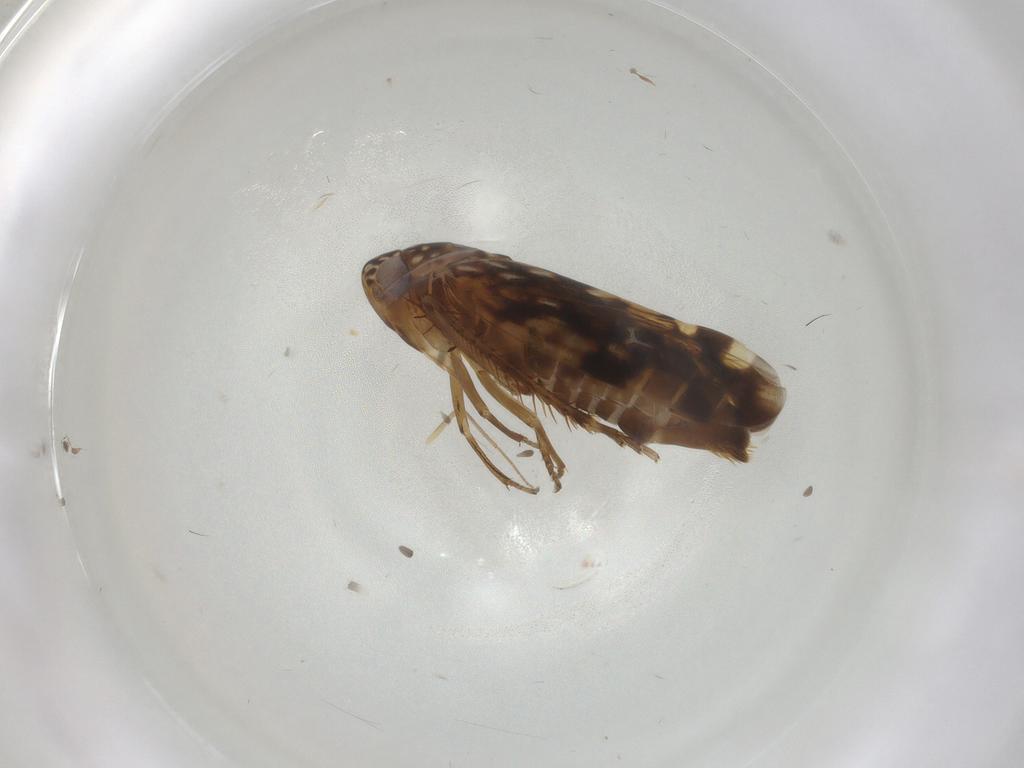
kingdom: Animalia
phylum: Arthropoda
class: Insecta
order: Hemiptera
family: Cicadellidae
